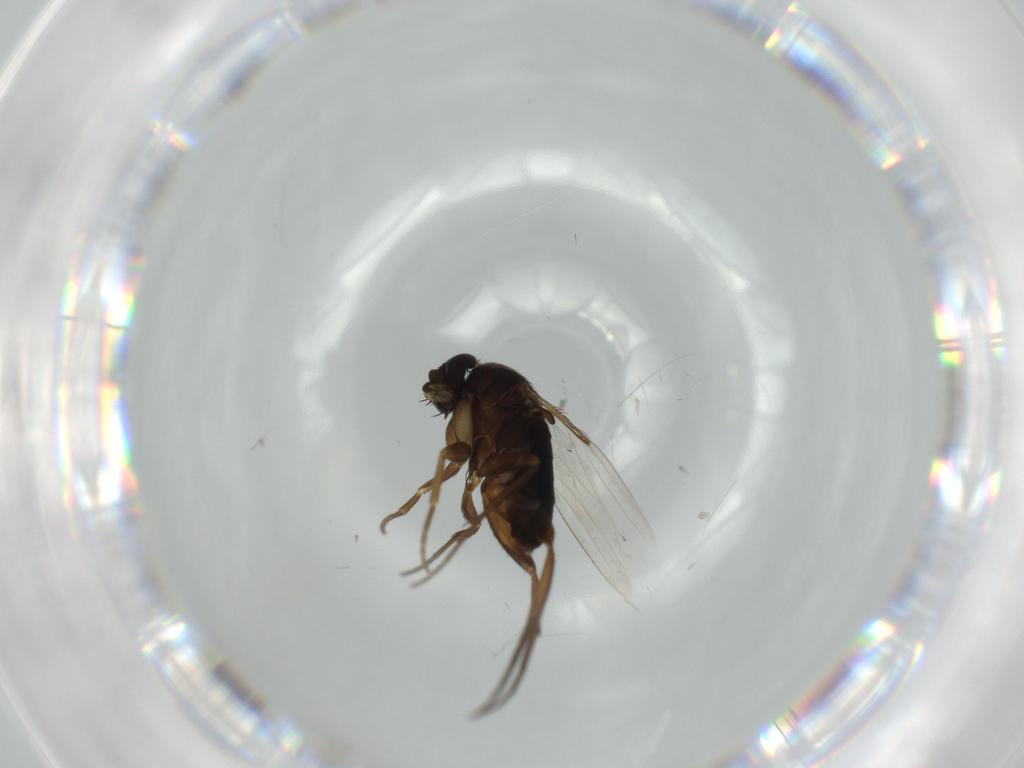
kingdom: Animalia
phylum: Arthropoda
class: Insecta
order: Diptera
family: Phoridae
